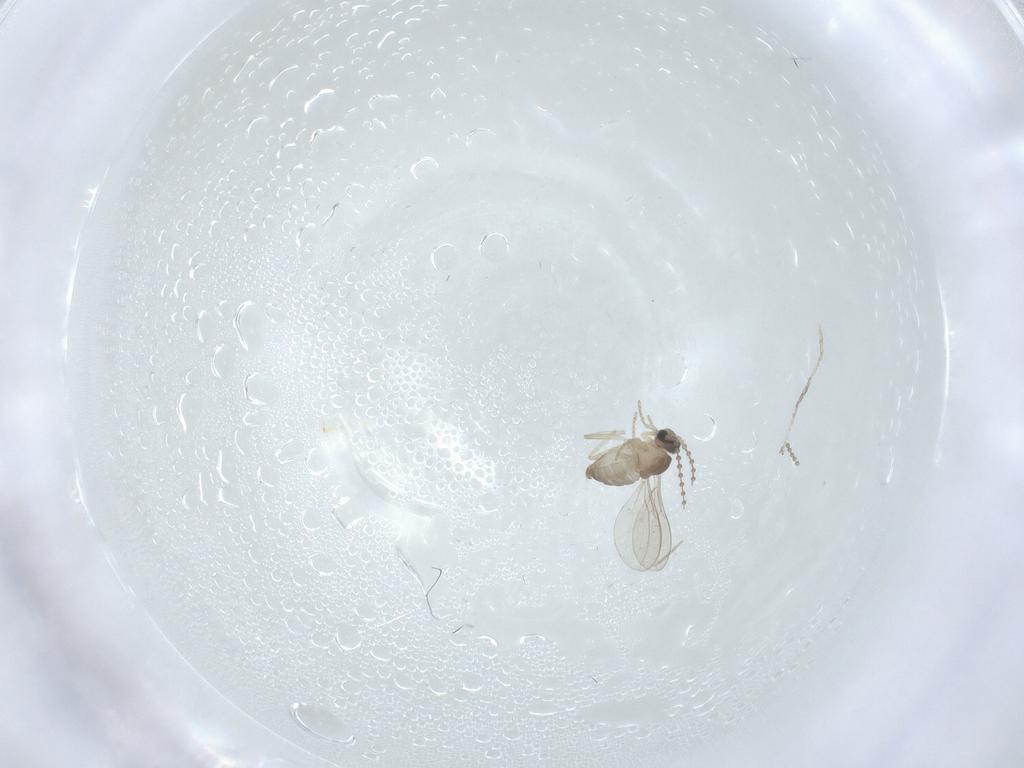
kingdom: Animalia
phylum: Arthropoda
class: Insecta
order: Diptera
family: Cecidomyiidae
